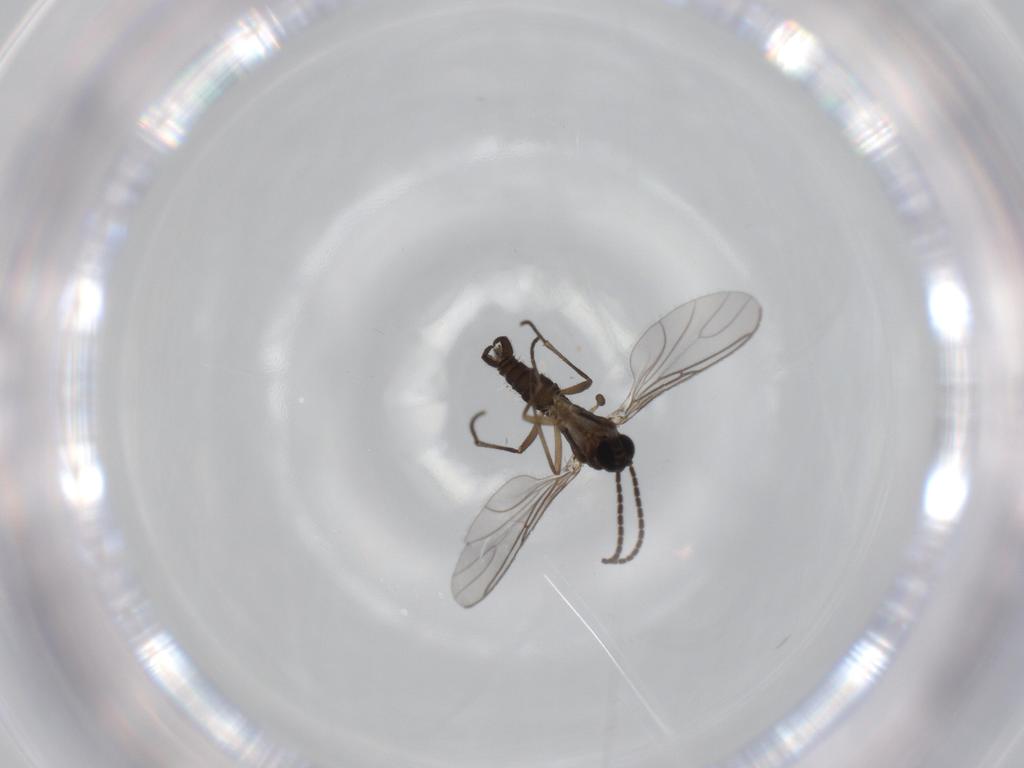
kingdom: Animalia
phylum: Arthropoda
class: Insecta
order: Diptera
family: Sciaridae
